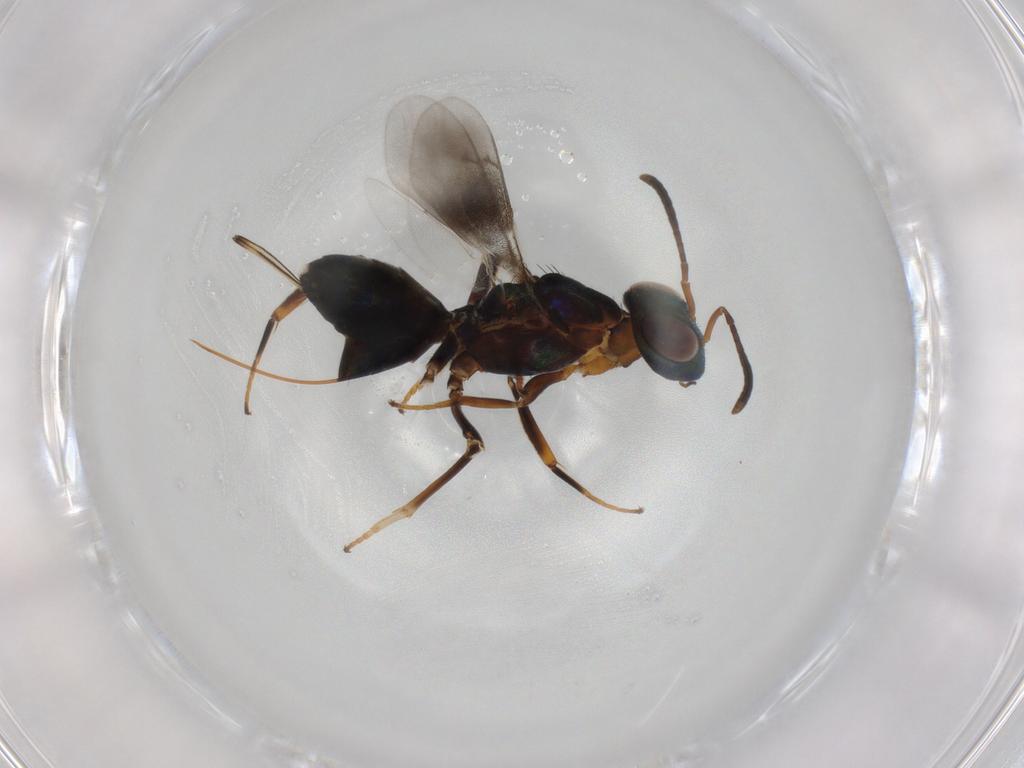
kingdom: Animalia
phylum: Arthropoda
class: Insecta
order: Hymenoptera
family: Eupelmidae
